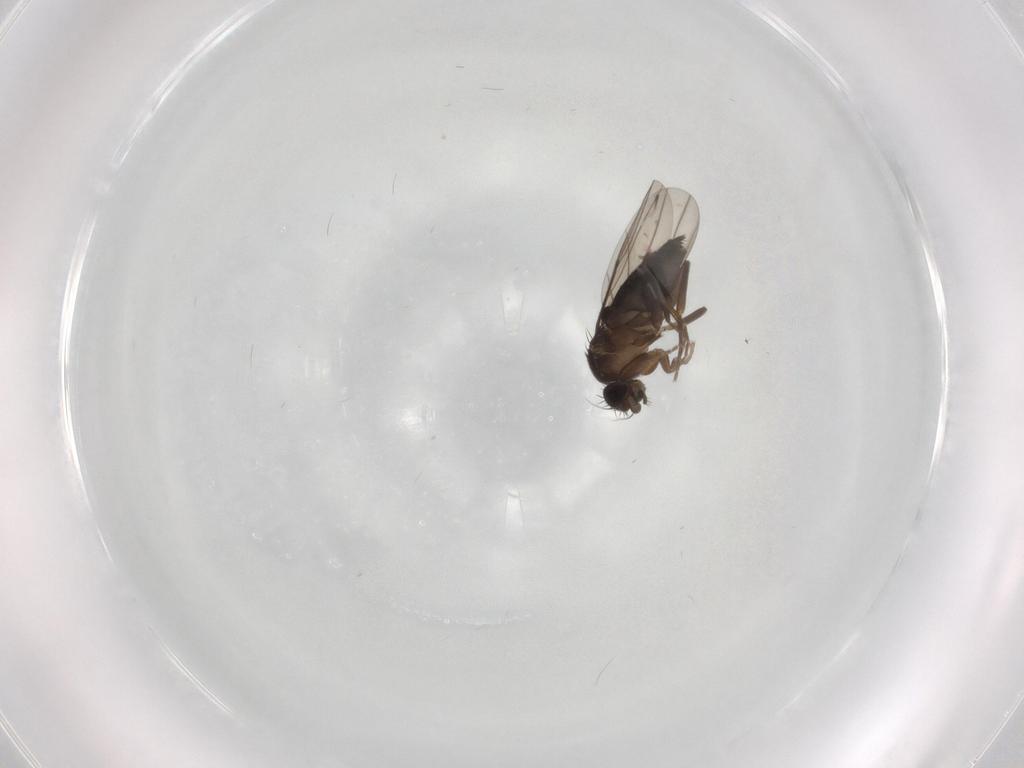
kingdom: Animalia
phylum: Arthropoda
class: Insecta
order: Diptera
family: Phoridae
